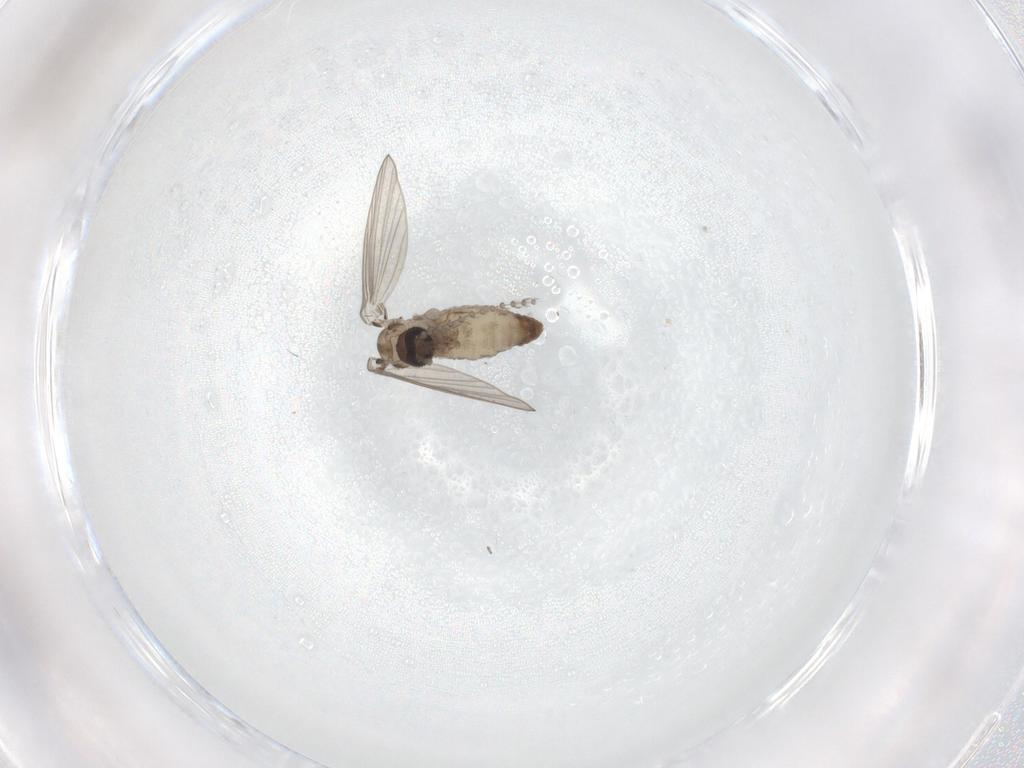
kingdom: Animalia
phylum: Arthropoda
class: Insecta
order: Diptera
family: Psychodidae
